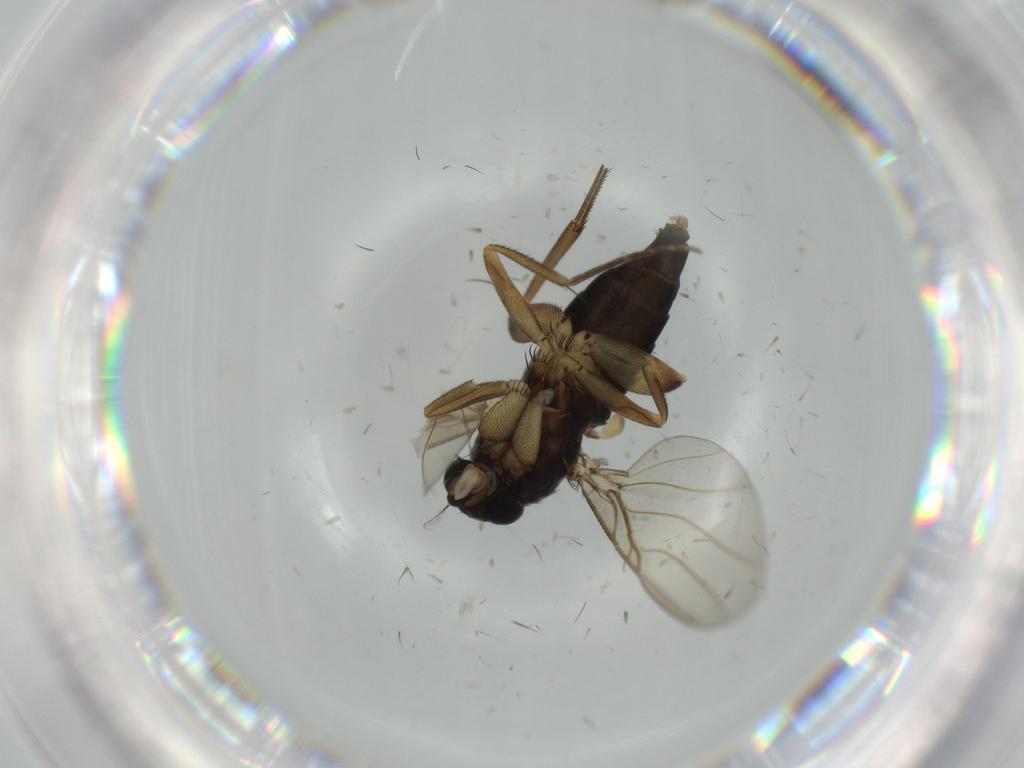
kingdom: Animalia
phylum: Arthropoda
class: Insecta
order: Diptera
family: Phoridae
